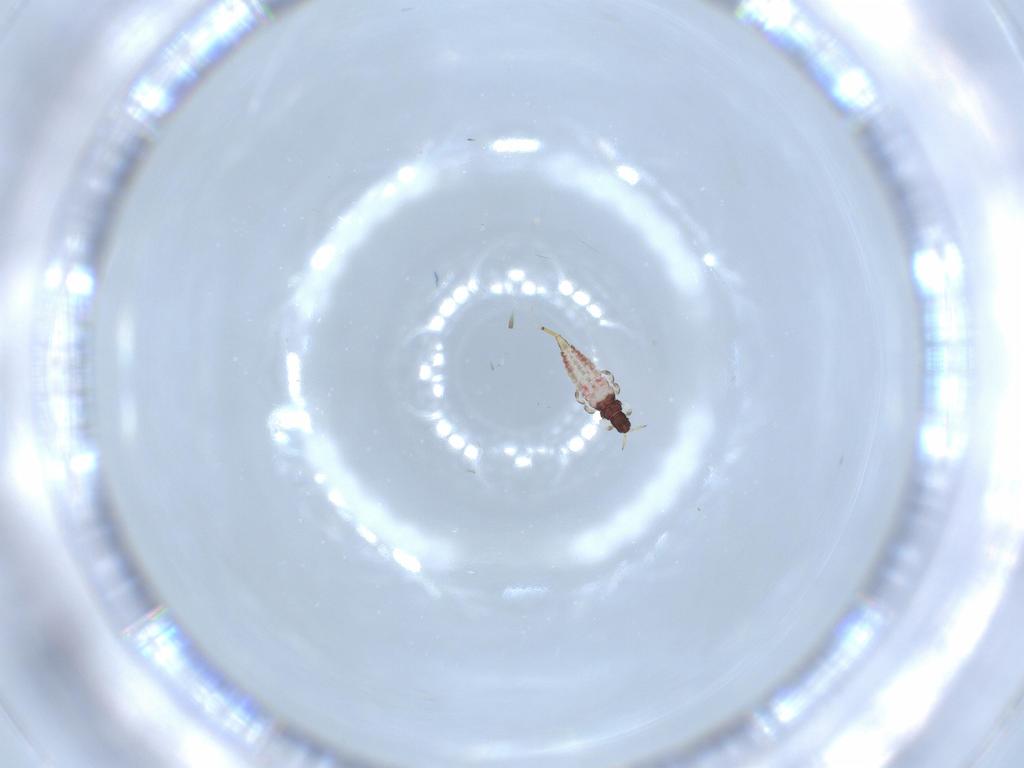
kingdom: Animalia
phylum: Arthropoda
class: Insecta
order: Thysanoptera
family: Phlaeothripidae
